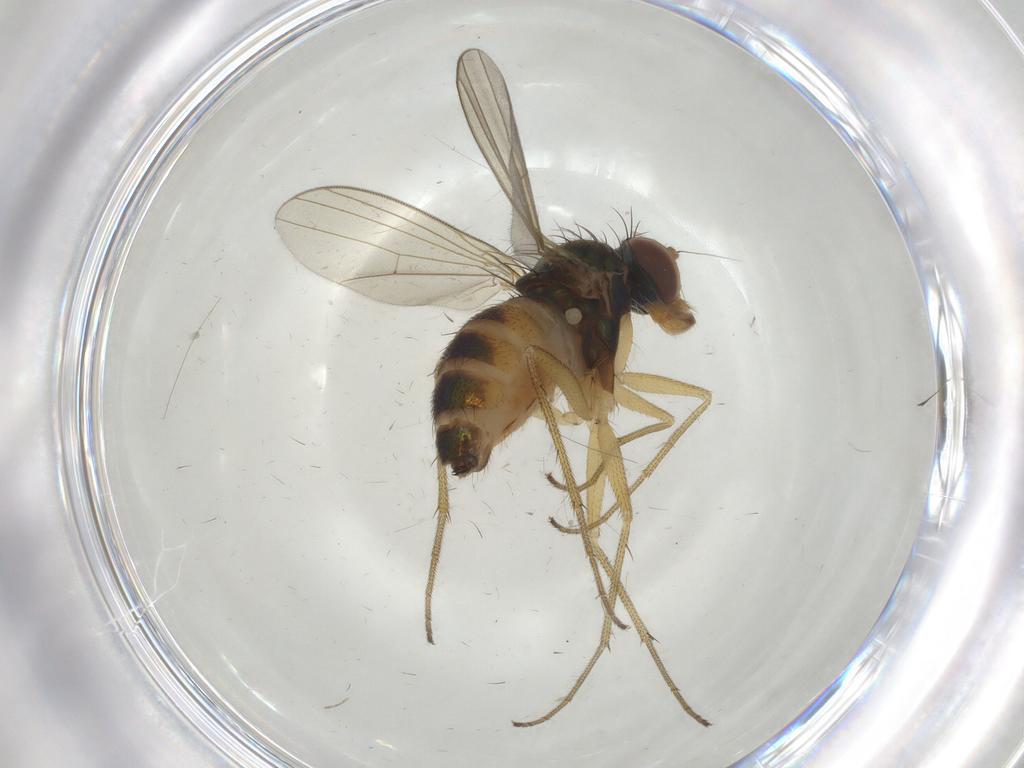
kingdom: Animalia
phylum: Arthropoda
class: Insecta
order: Diptera
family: Dolichopodidae
